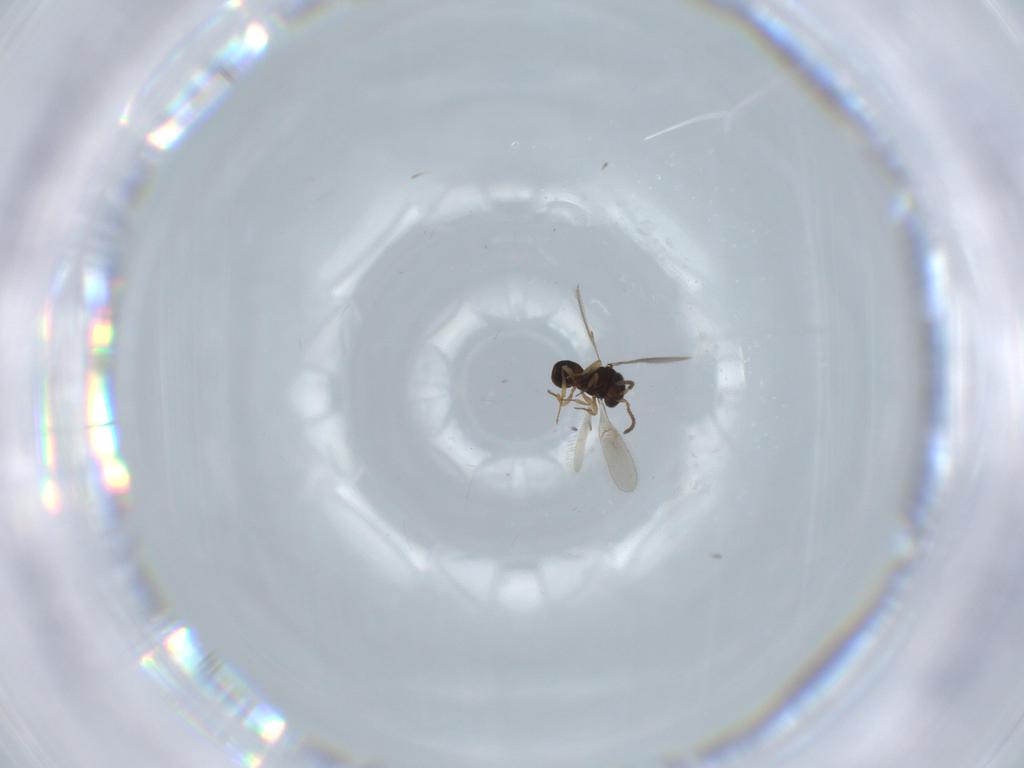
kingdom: Animalia
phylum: Arthropoda
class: Insecta
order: Hymenoptera
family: Scelionidae
